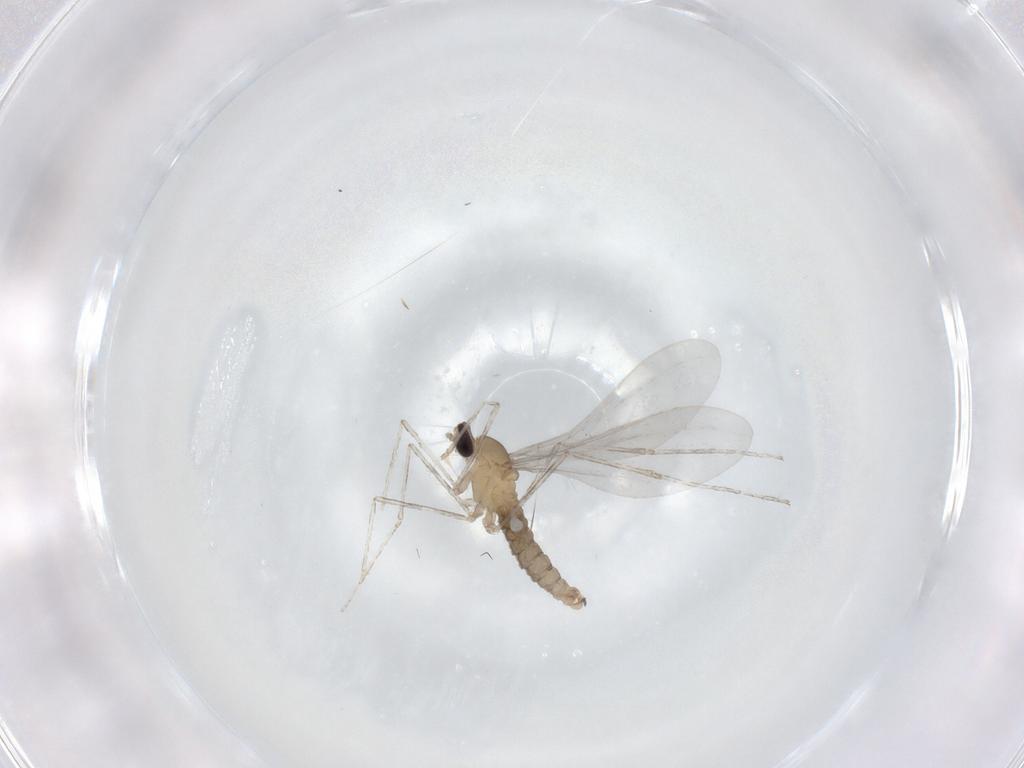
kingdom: Animalia
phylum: Arthropoda
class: Insecta
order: Diptera
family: Cecidomyiidae
